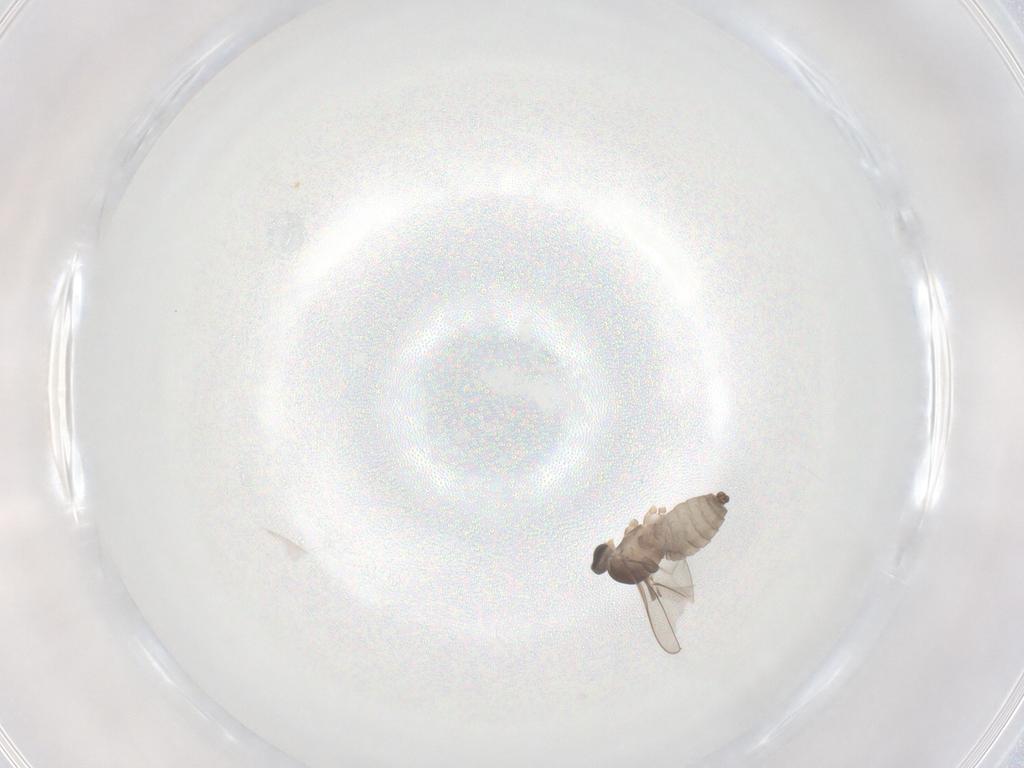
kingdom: Animalia
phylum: Arthropoda
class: Insecta
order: Diptera
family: Cecidomyiidae
